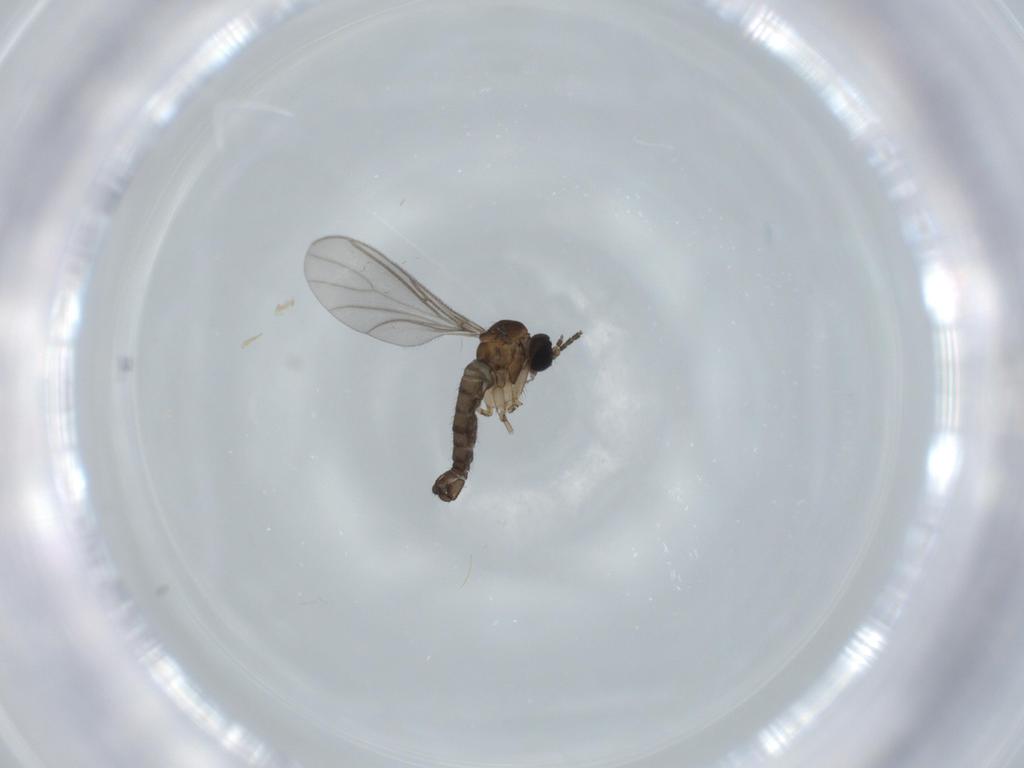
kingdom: Animalia
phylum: Arthropoda
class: Insecta
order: Diptera
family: Sciaridae
